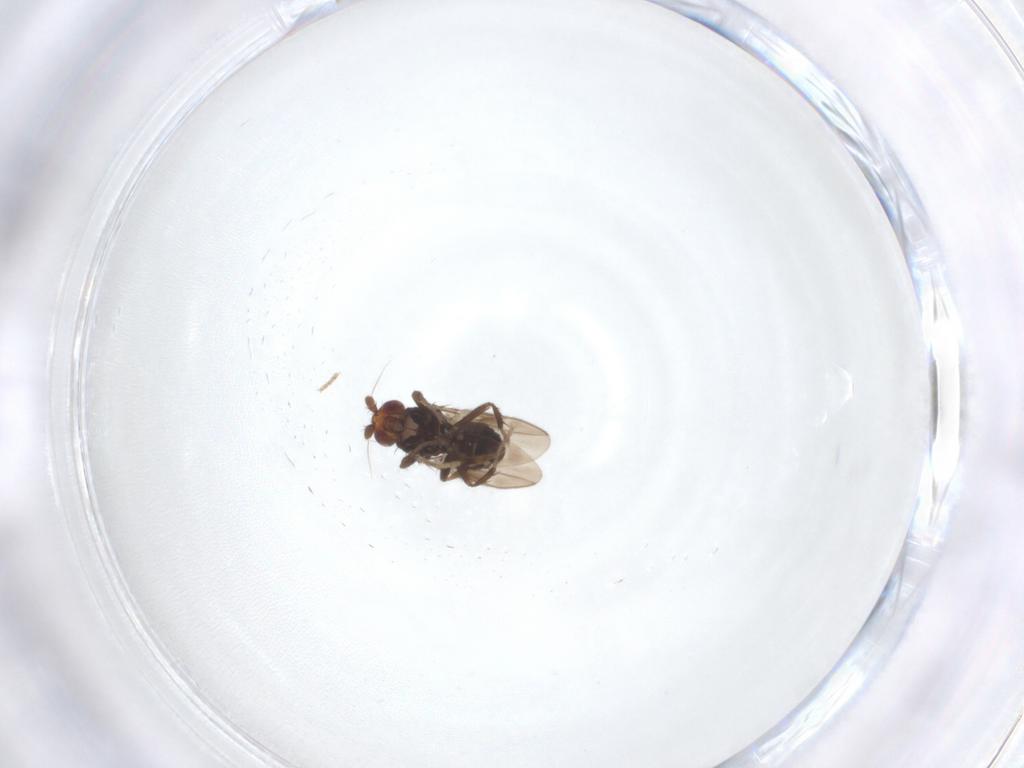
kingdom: Animalia
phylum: Arthropoda
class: Insecta
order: Diptera
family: Sphaeroceridae
